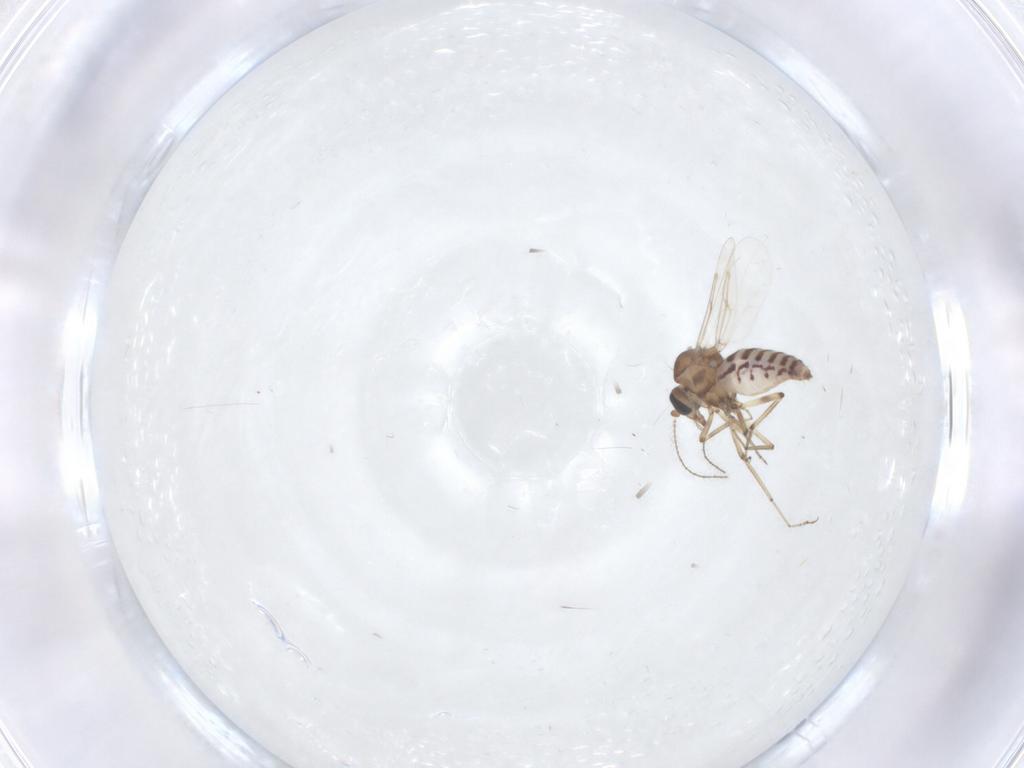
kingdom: Animalia
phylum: Arthropoda
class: Insecta
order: Diptera
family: Ceratopogonidae
